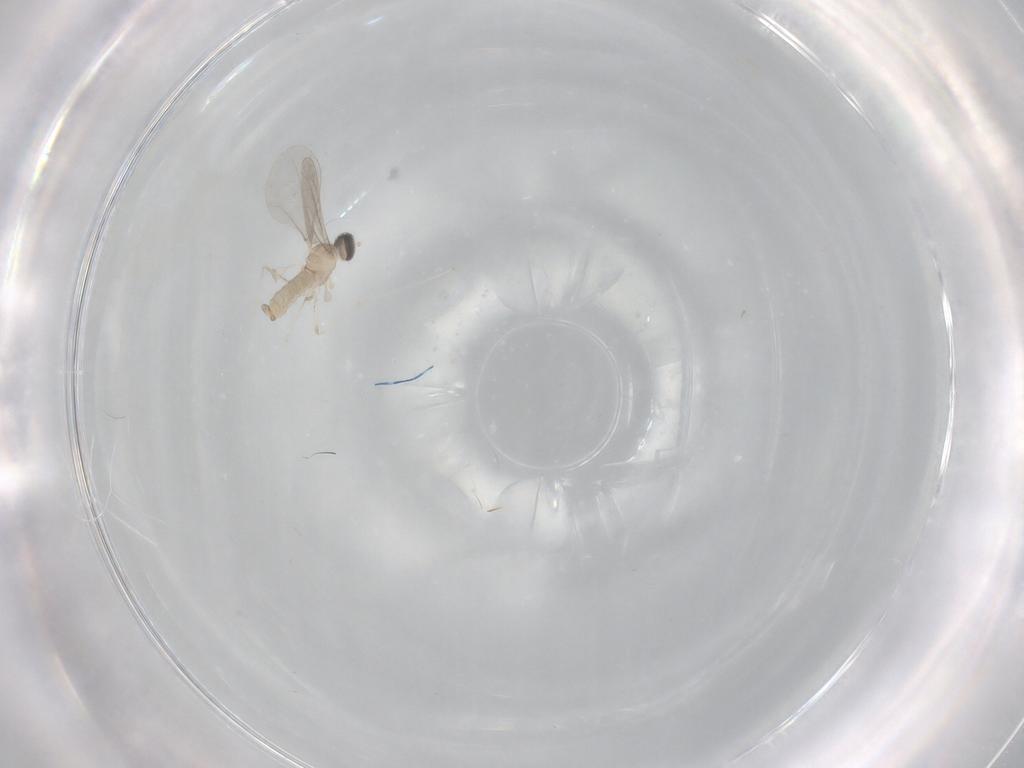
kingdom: Animalia
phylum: Arthropoda
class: Insecta
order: Diptera
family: Cecidomyiidae
